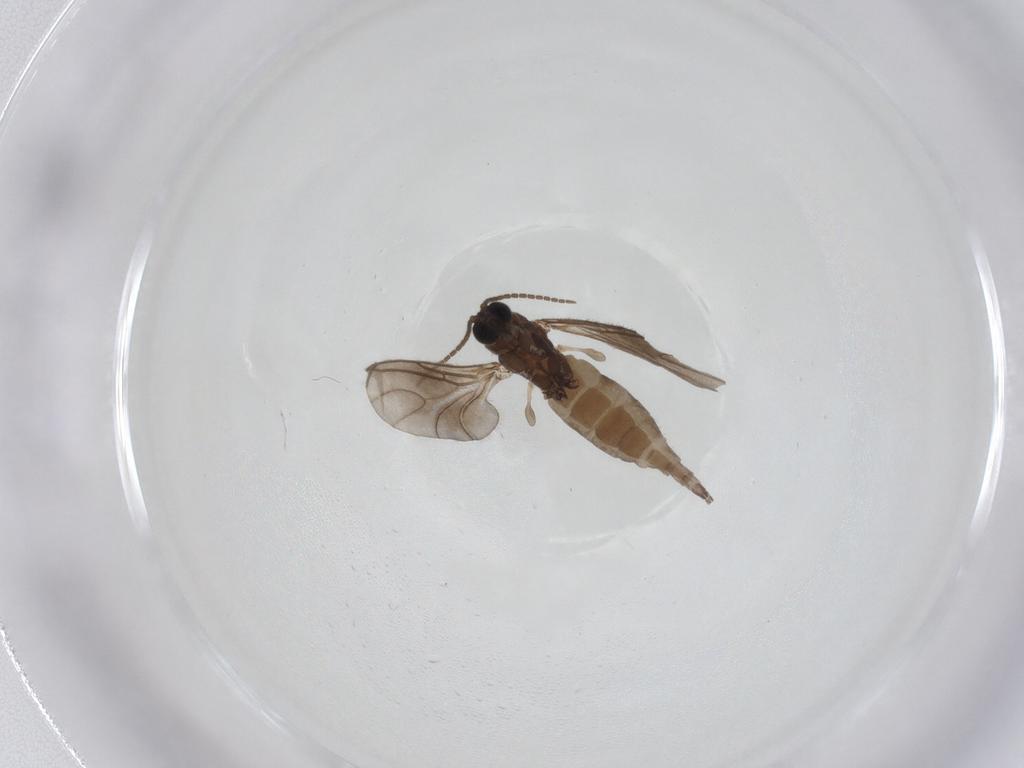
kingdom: Animalia
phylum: Arthropoda
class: Insecta
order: Diptera
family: Sciaridae
